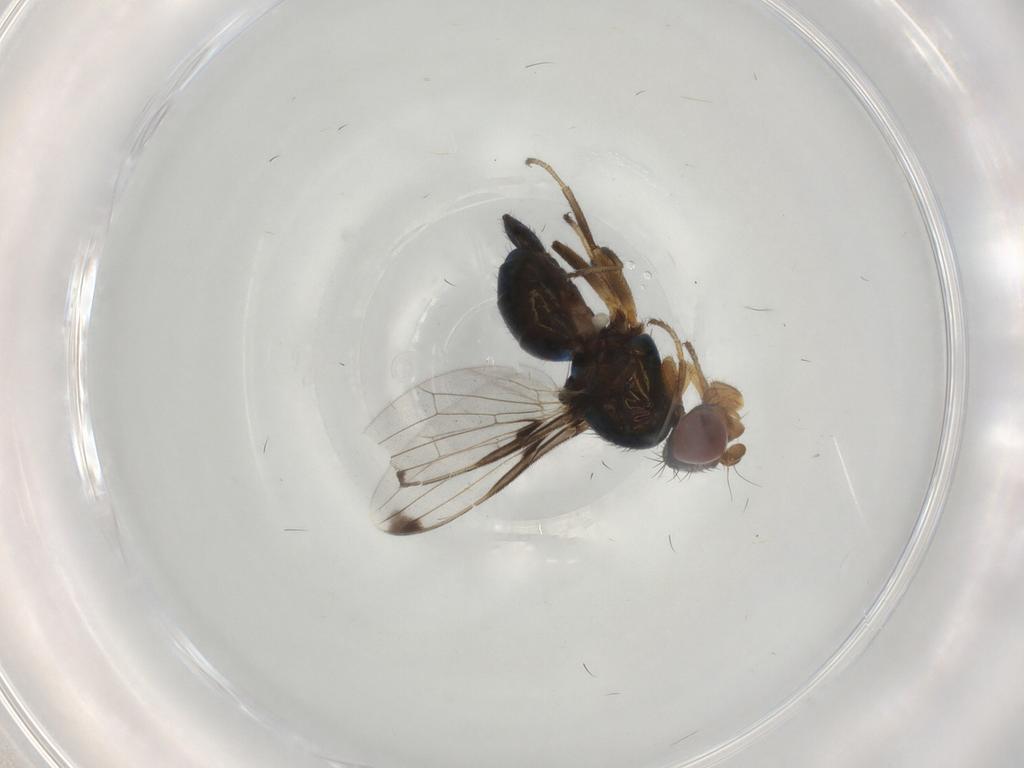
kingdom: Animalia
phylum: Arthropoda
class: Insecta
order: Diptera
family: Ulidiidae
